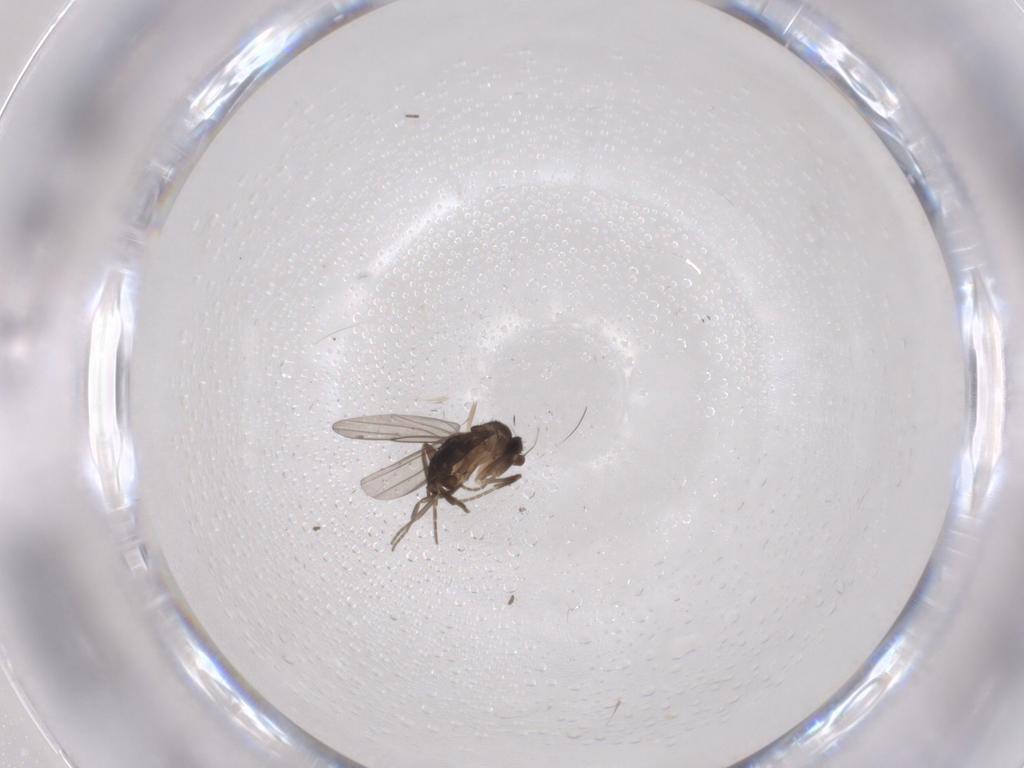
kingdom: Animalia
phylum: Arthropoda
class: Insecta
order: Diptera
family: Phoridae
